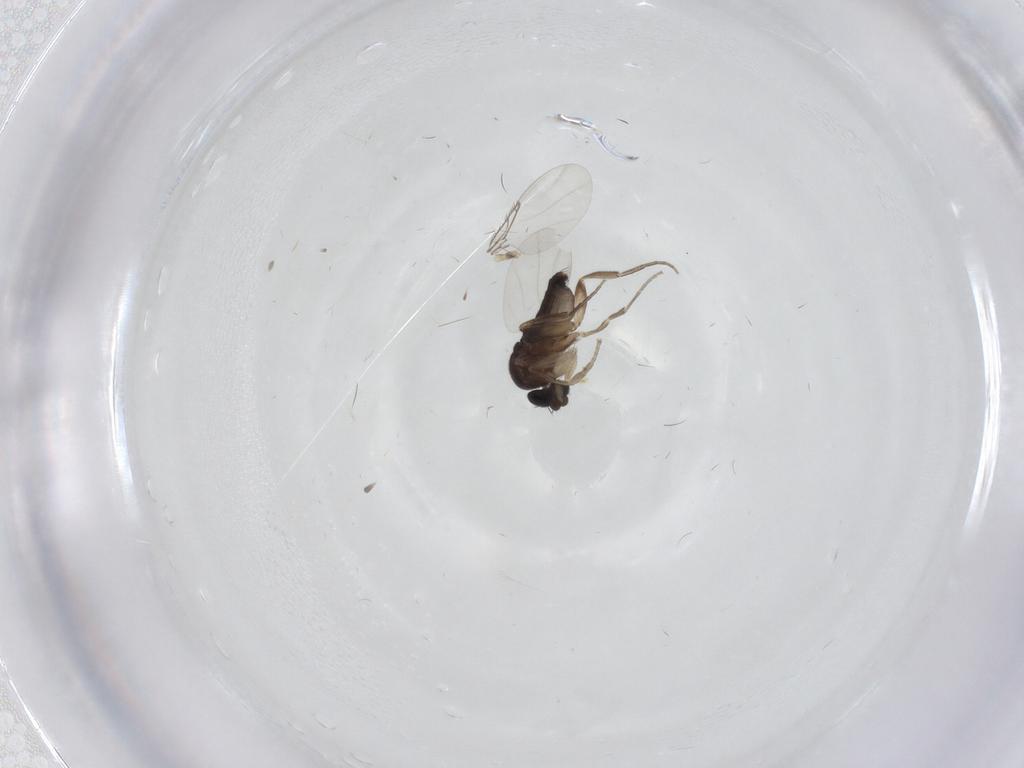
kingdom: Animalia
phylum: Arthropoda
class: Insecta
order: Diptera
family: Phoridae
